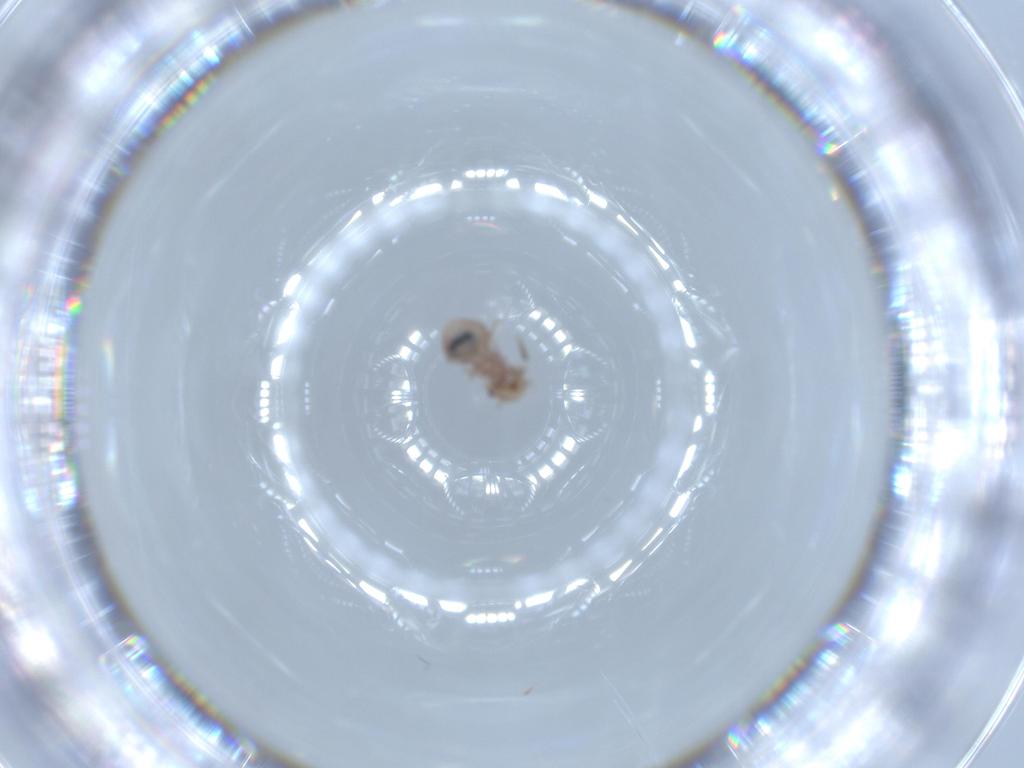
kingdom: Animalia
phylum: Arthropoda
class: Insecta
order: Psocodea
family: Ectopsocidae
